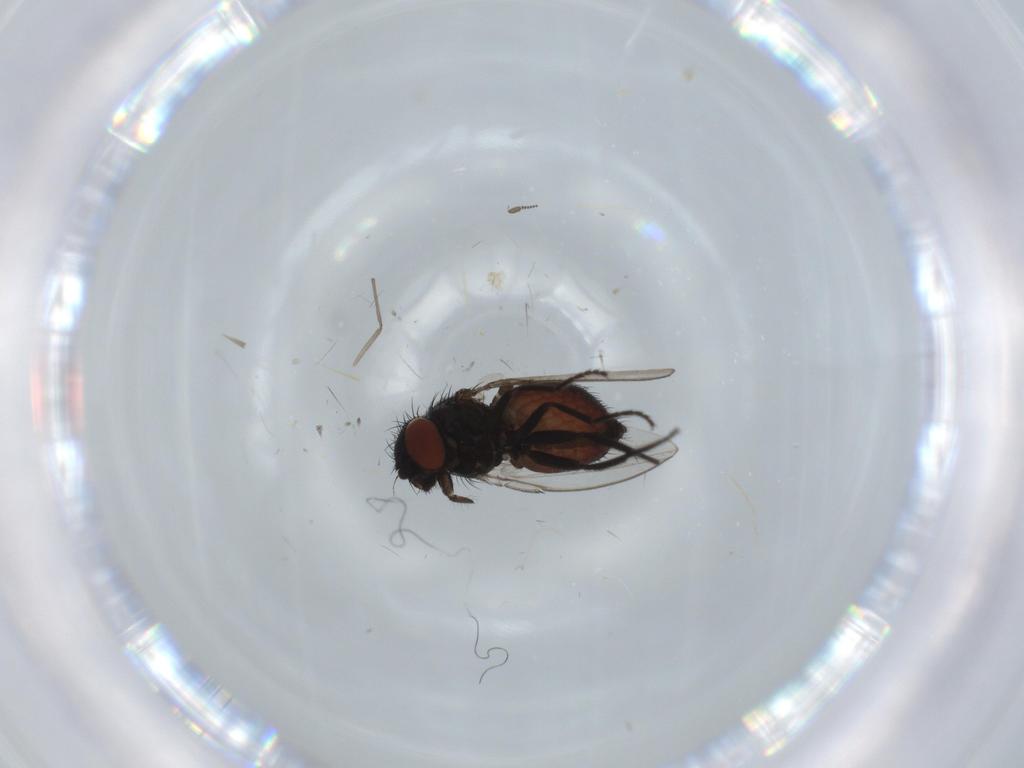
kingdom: Animalia
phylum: Arthropoda
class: Insecta
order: Diptera
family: Milichiidae
